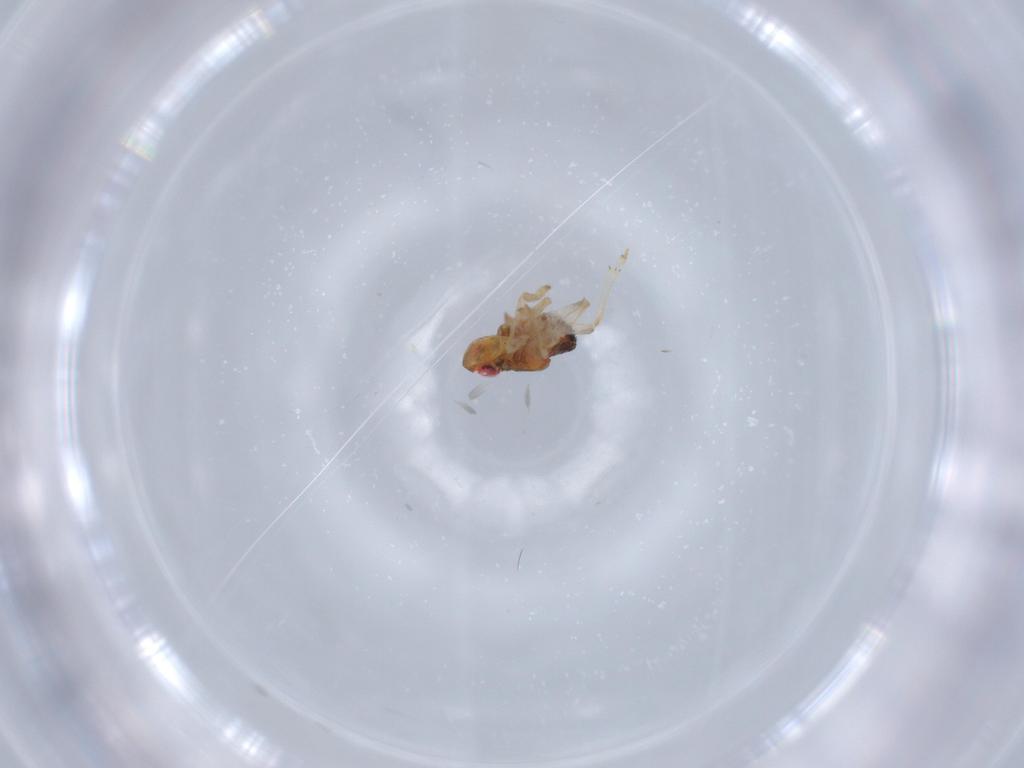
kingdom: Animalia
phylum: Arthropoda
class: Insecta
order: Hemiptera
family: Issidae
